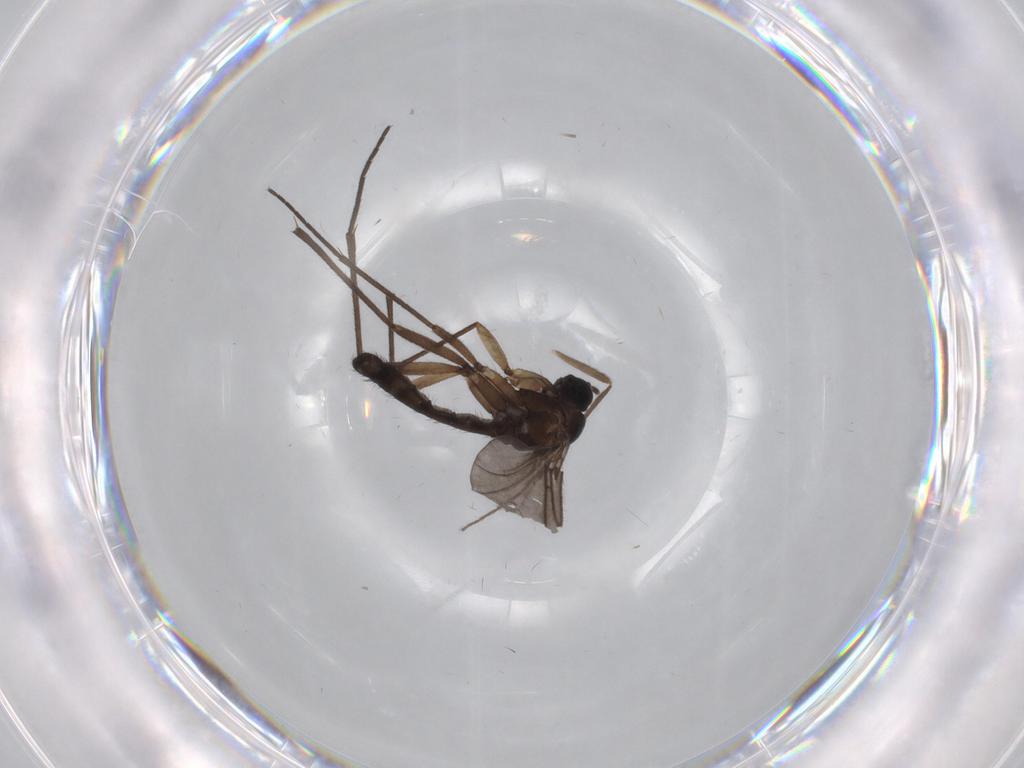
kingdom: Animalia
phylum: Arthropoda
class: Insecta
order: Diptera
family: Sciaridae
